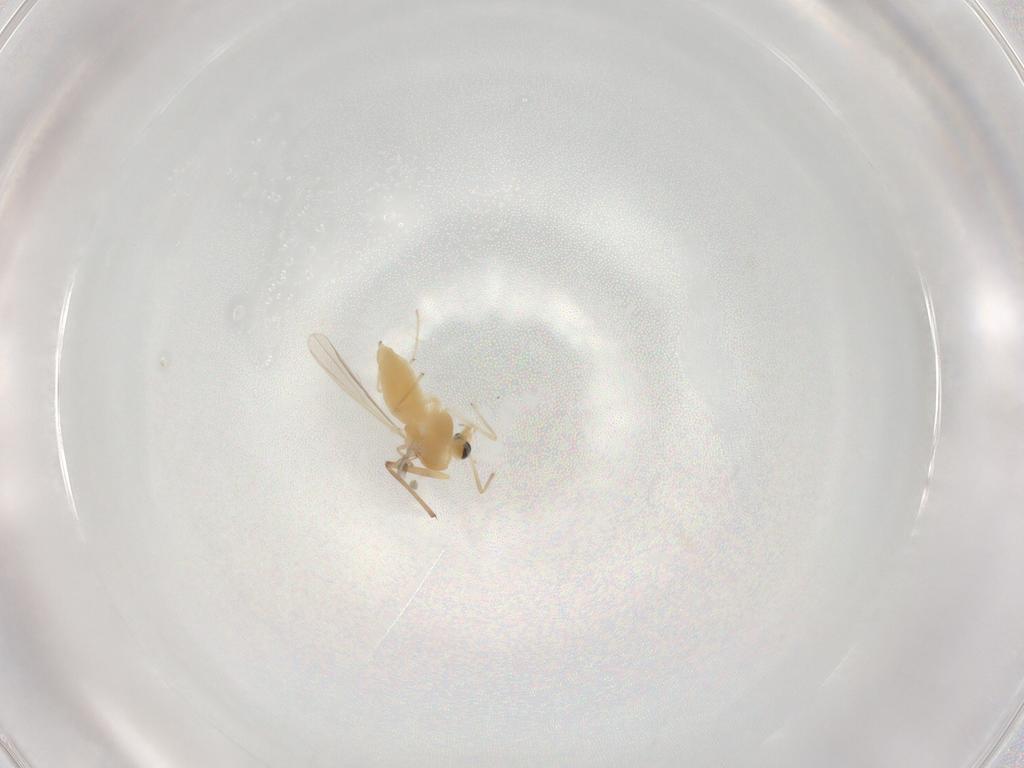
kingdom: Animalia
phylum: Arthropoda
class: Insecta
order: Diptera
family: Chironomidae
